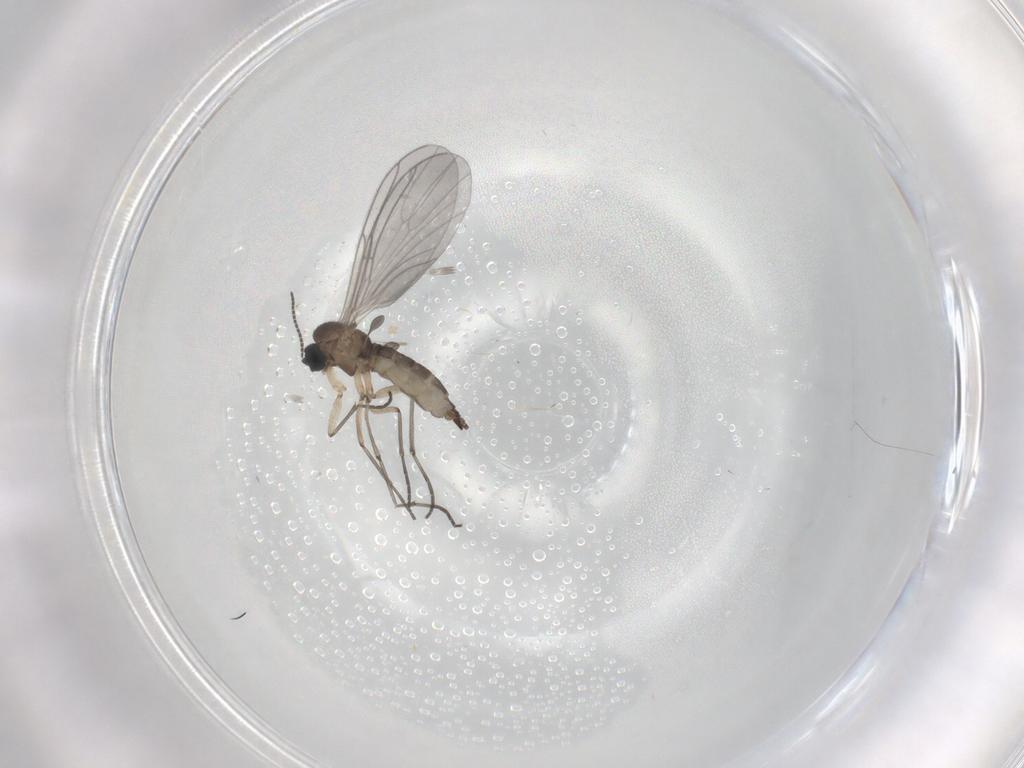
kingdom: Animalia
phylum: Arthropoda
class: Insecta
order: Diptera
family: Sciaridae
